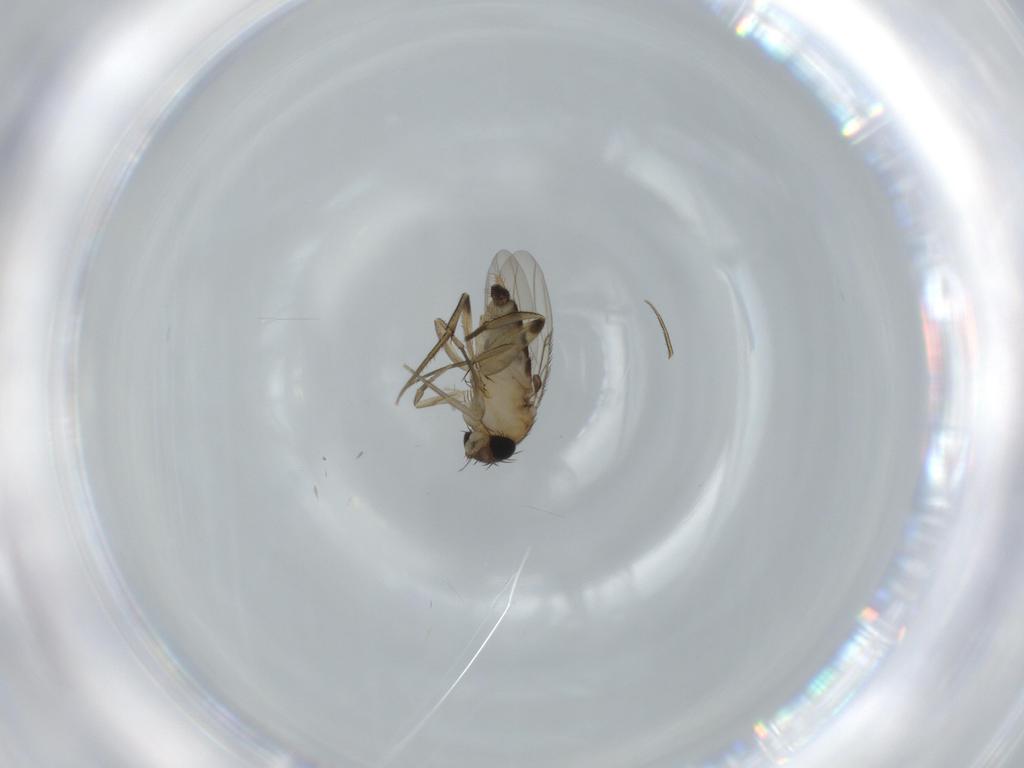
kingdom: Animalia
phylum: Arthropoda
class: Insecta
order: Diptera
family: Phoridae
